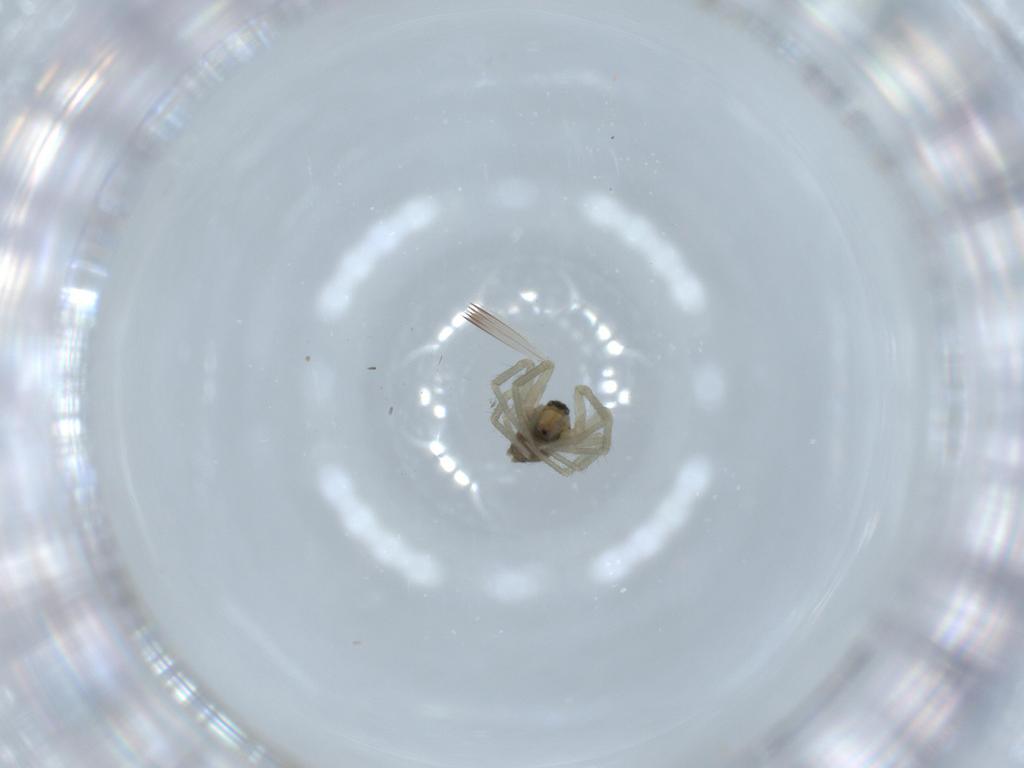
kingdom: Animalia
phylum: Arthropoda
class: Arachnida
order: Araneae
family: Linyphiidae
